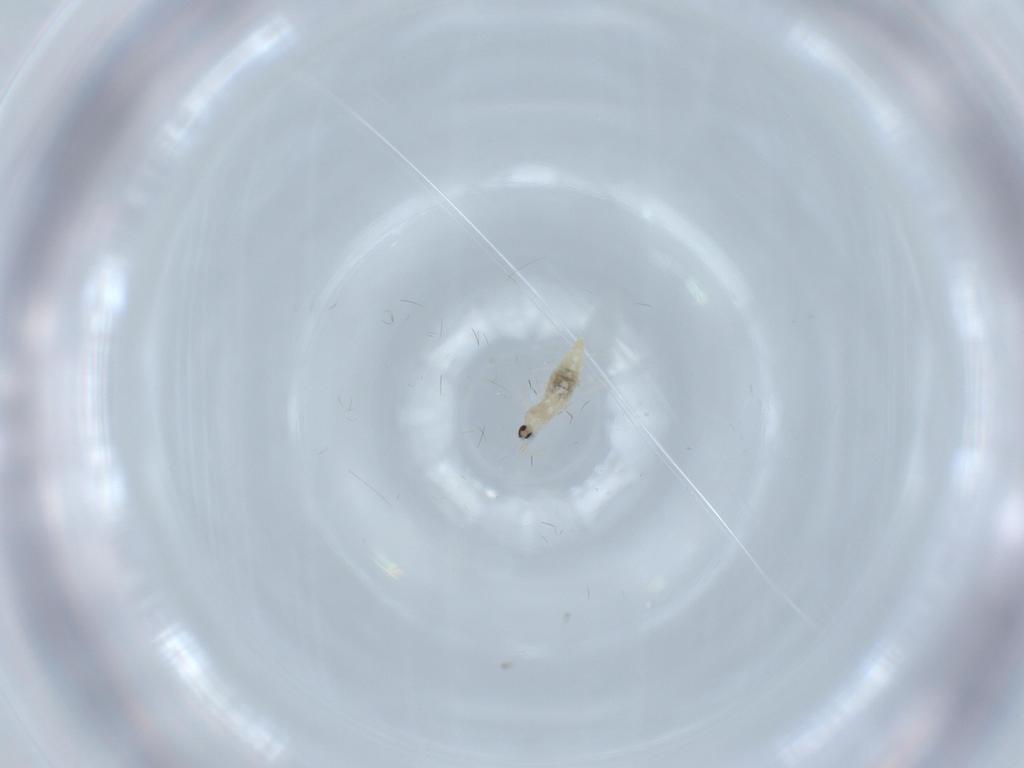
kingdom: Animalia
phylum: Arthropoda
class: Insecta
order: Diptera
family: Cecidomyiidae
